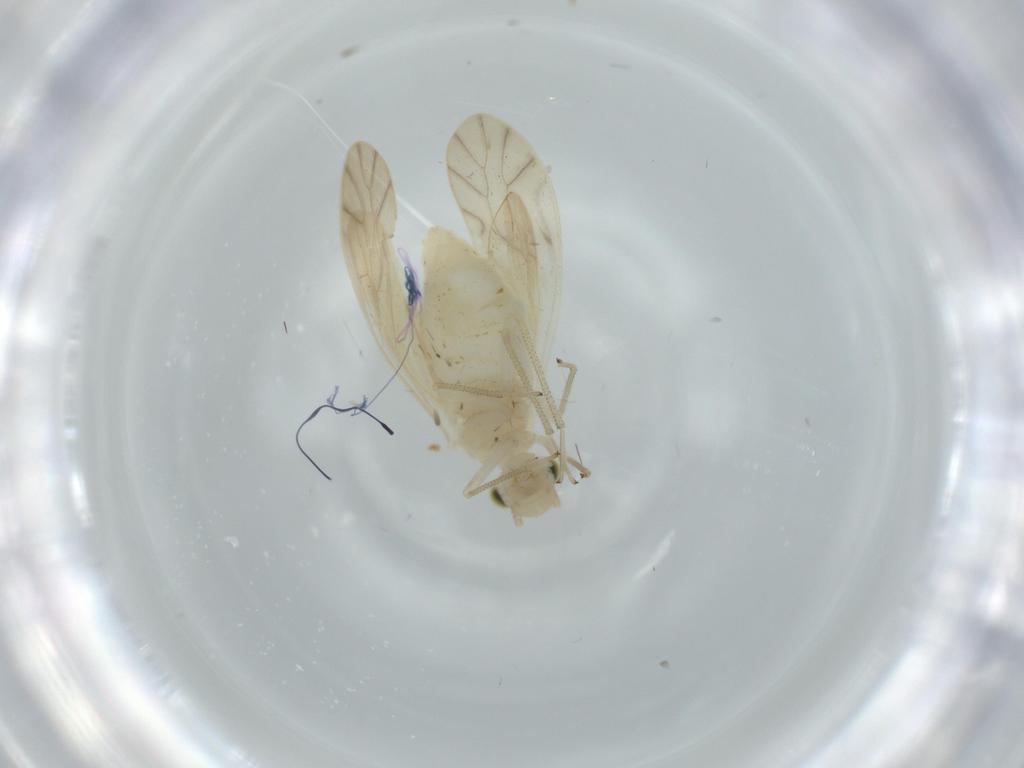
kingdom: Animalia
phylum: Arthropoda
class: Insecta
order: Psocodea
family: Caeciliusidae
